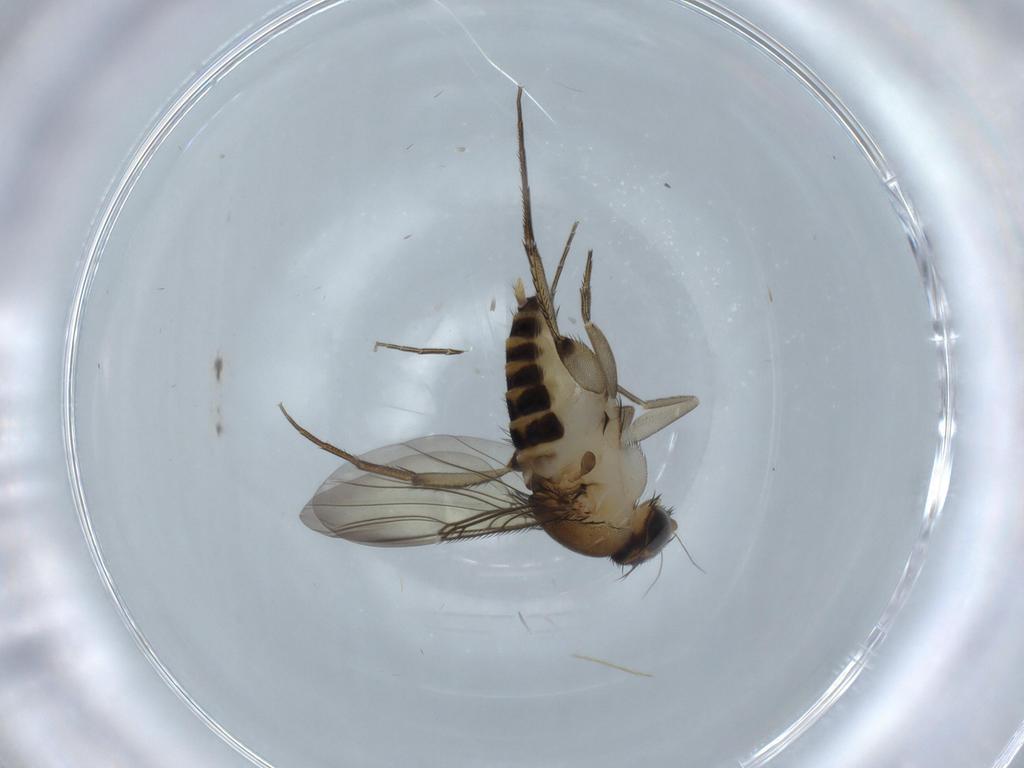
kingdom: Animalia
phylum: Arthropoda
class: Insecta
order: Diptera
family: Phoridae
